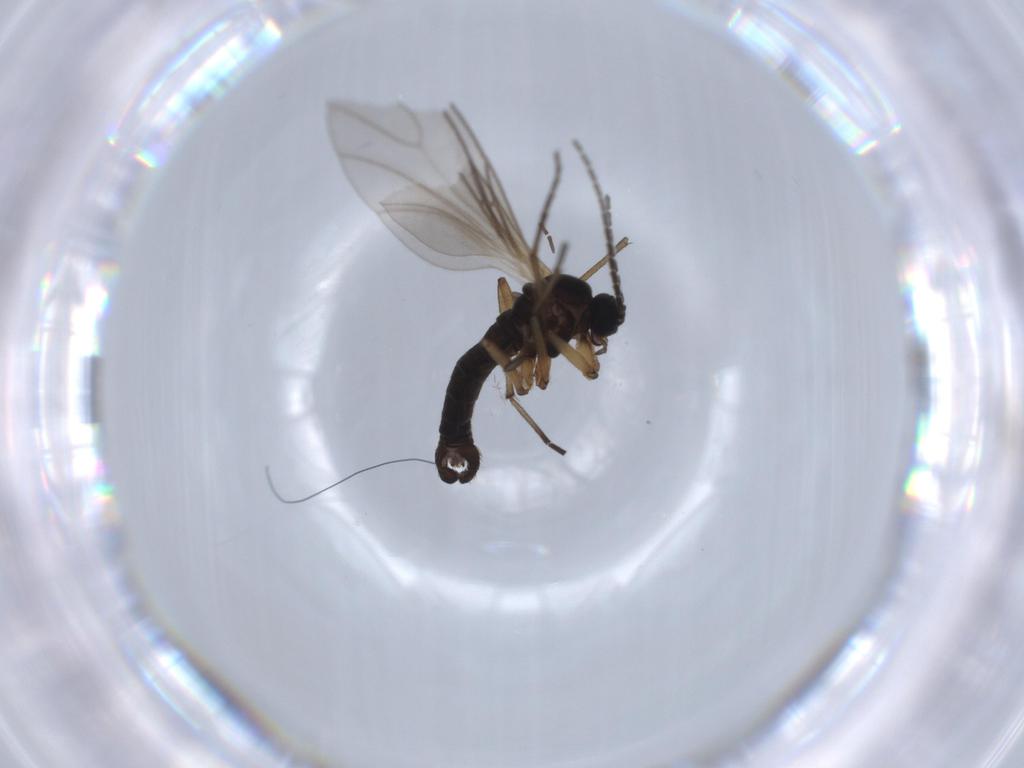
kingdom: Animalia
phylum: Arthropoda
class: Insecta
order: Diptera
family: Sciaridae
